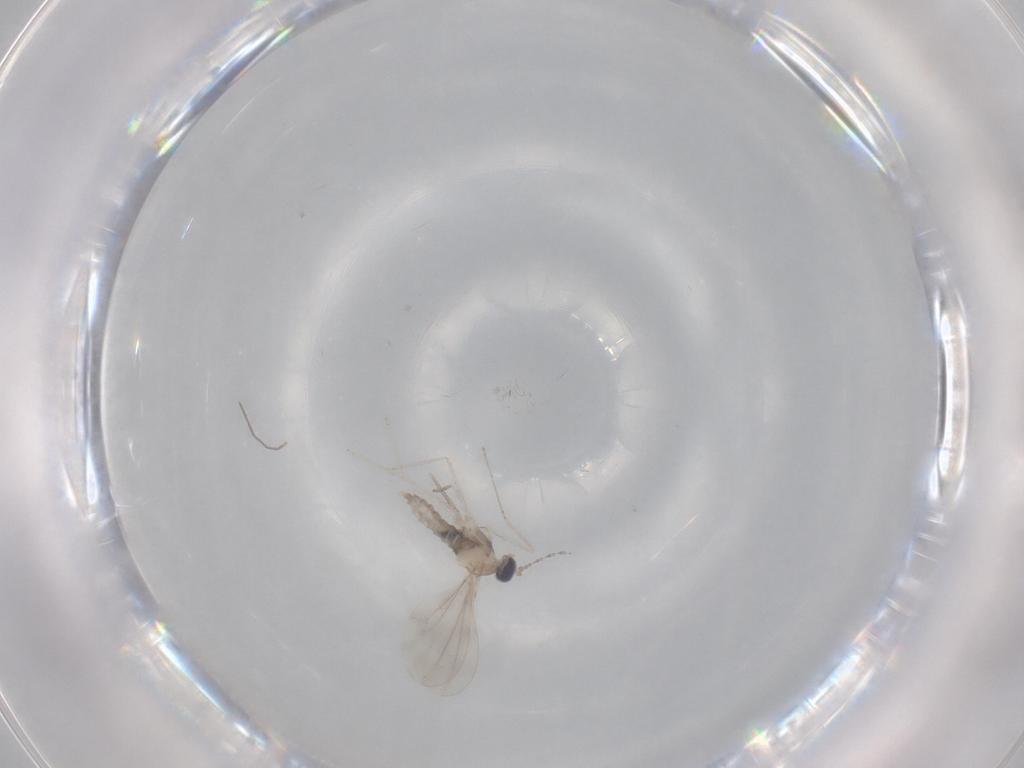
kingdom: Animalia
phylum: Arthropoda
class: Insecta
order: Diptera
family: Cecidomyiidae
